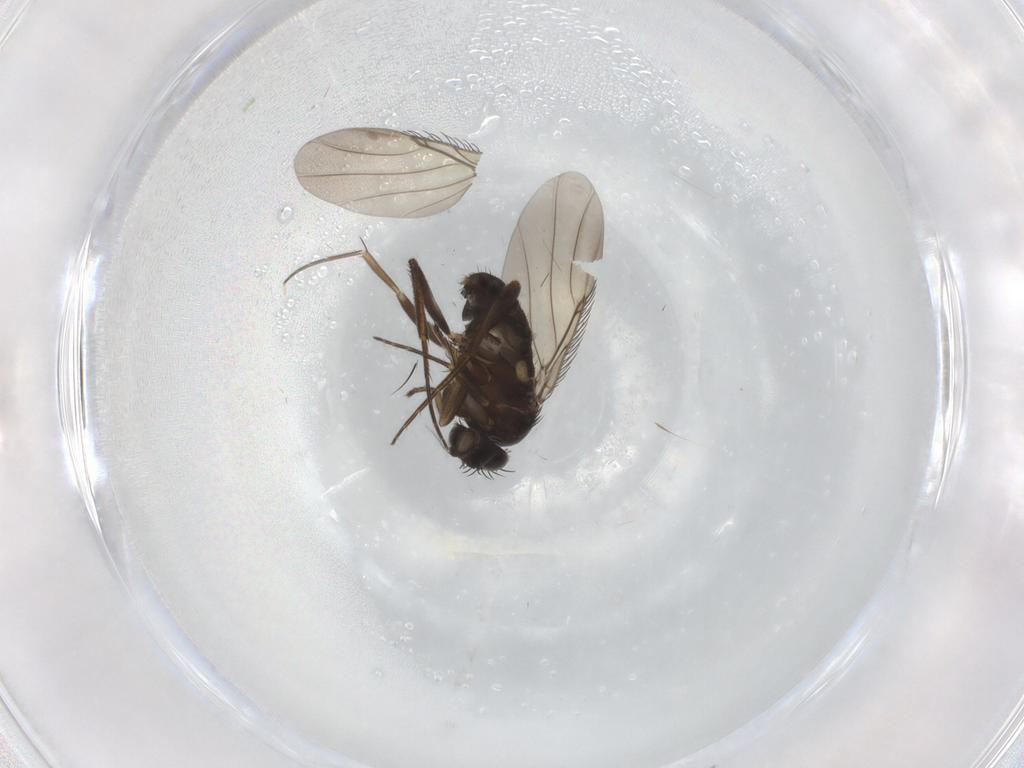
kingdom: Animalia
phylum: Arthropoda
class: Insecta
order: Diptera
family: Phoridae
